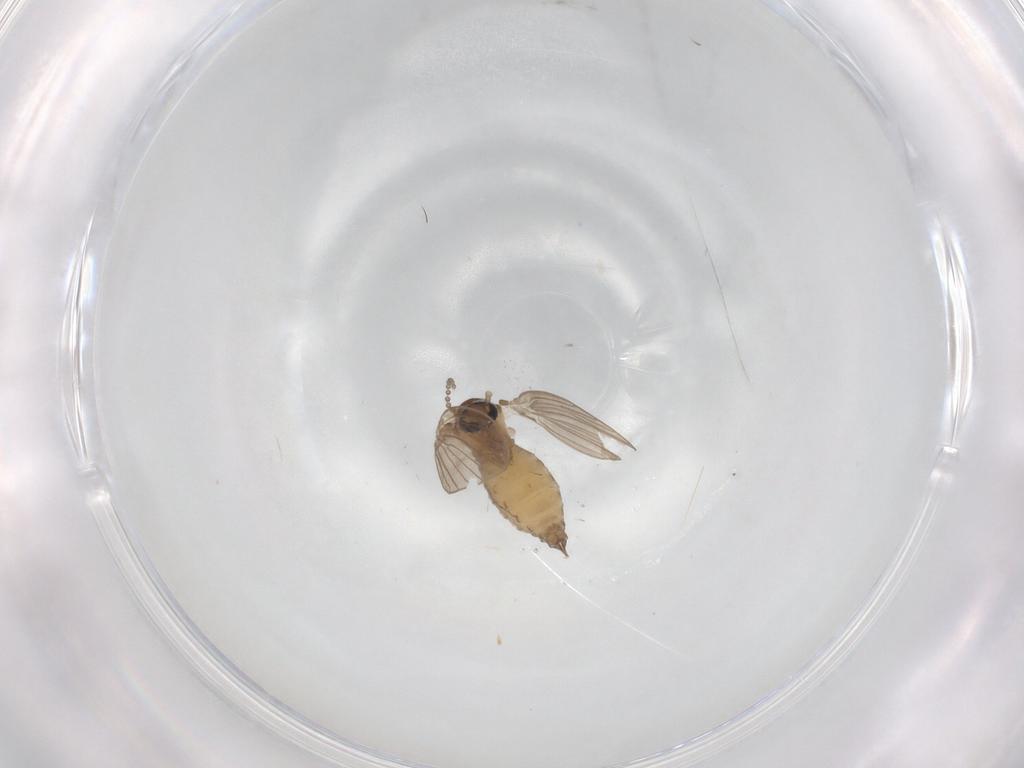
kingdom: Animalia
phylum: Arthropoda
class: Insecta
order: Diptera
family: Psychodidae
